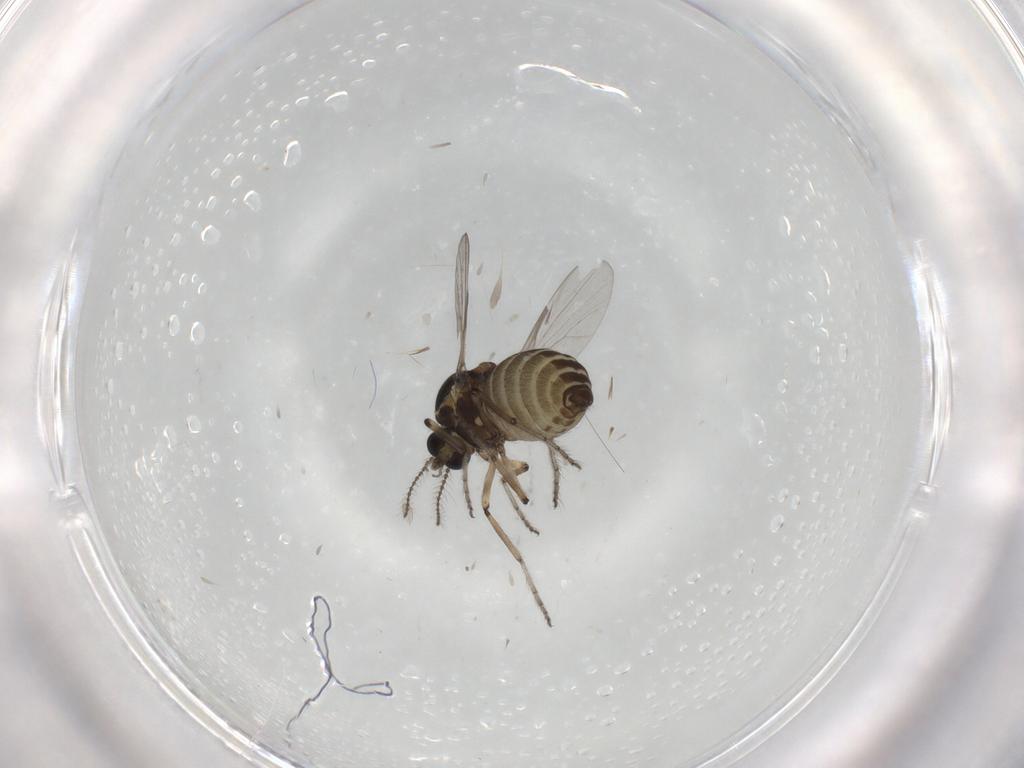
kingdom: Animalia
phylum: Arthropoda
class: Insecta
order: Diptera
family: Ceratopogonidae
